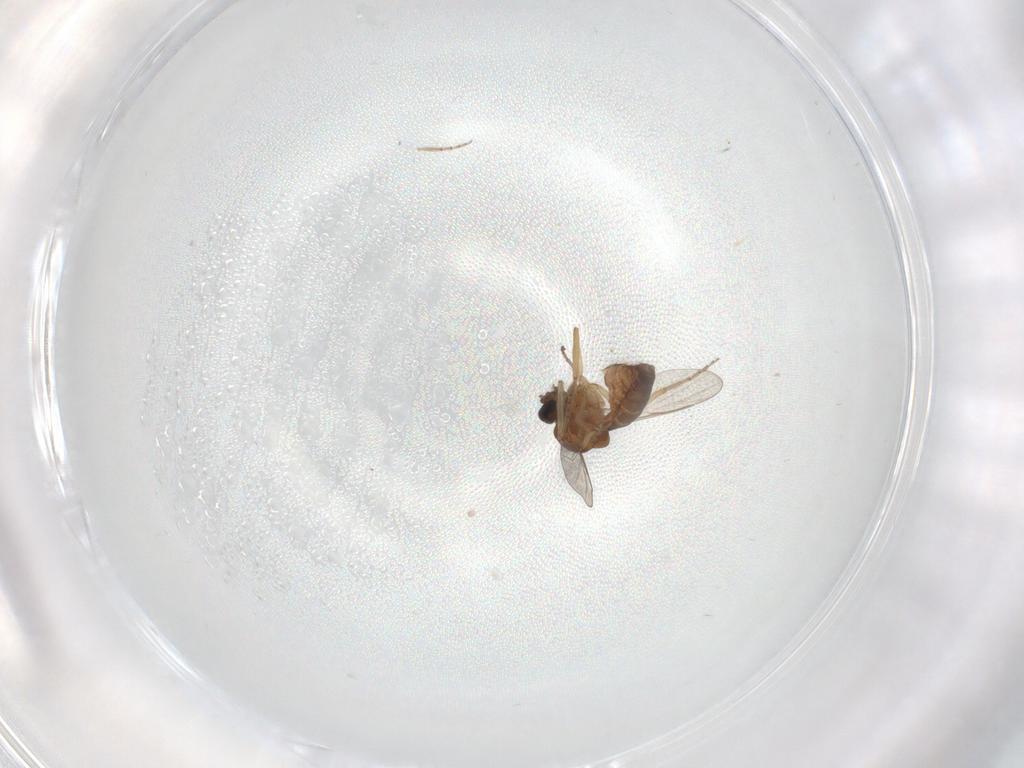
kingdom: Animalia
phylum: Arthropoda
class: Insecta
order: Diptera
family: Ceratopogonidae
